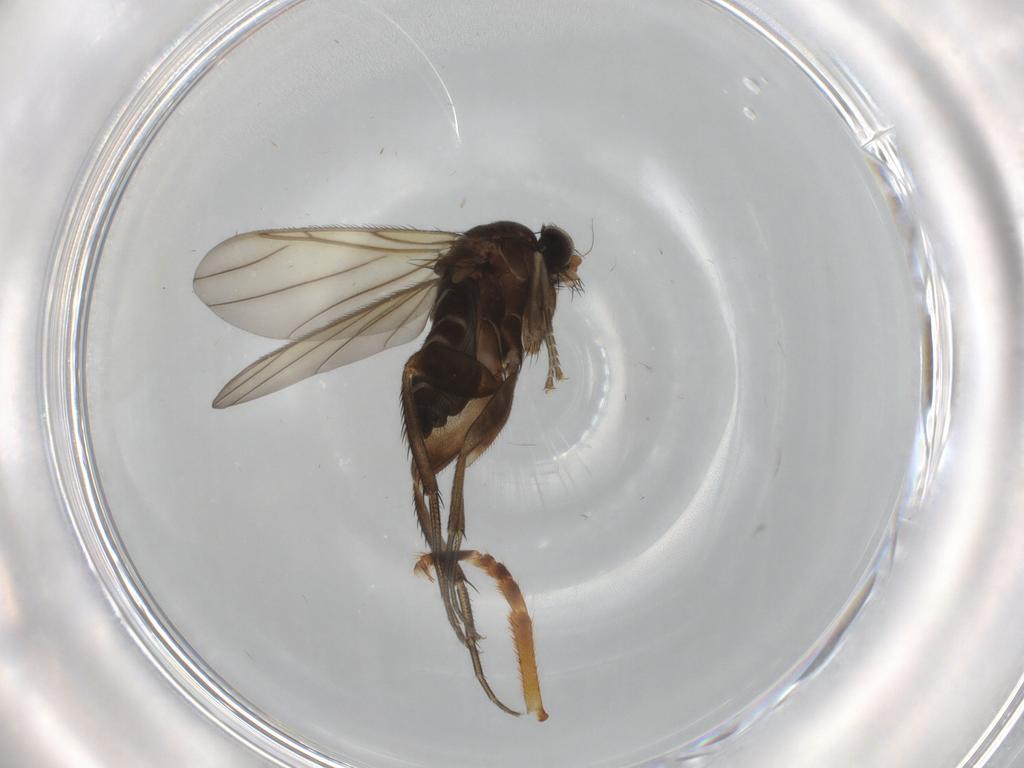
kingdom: Animalia
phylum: Arthropoda
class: Insecta
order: Diptera
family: Phoridae
